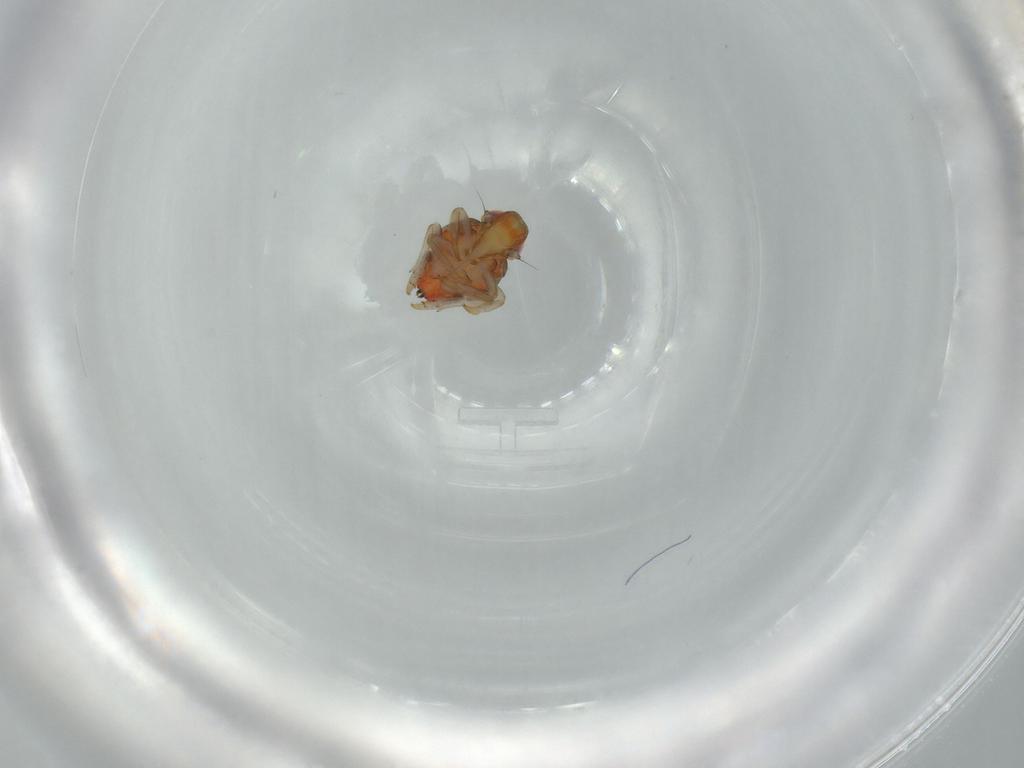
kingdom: Animalia
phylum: Arthropoda
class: Insecta
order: Hemiptera
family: Issidae
